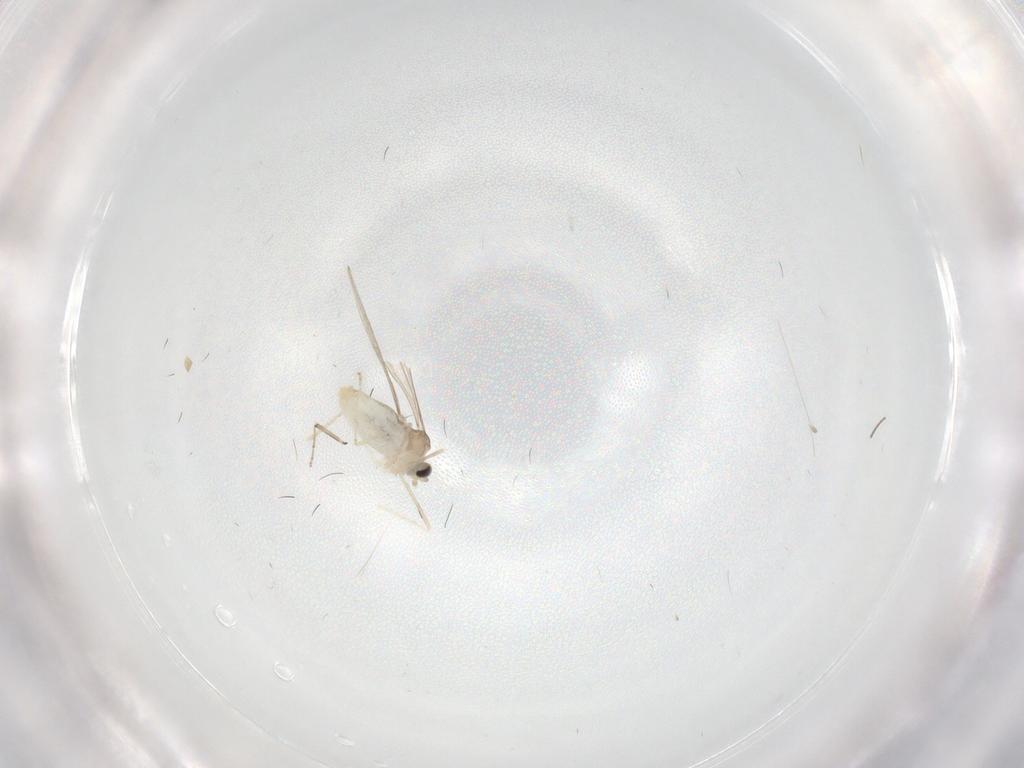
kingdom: Animalia
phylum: Arthropoda
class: Insecta
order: Diptera
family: Cecidomyiidae
